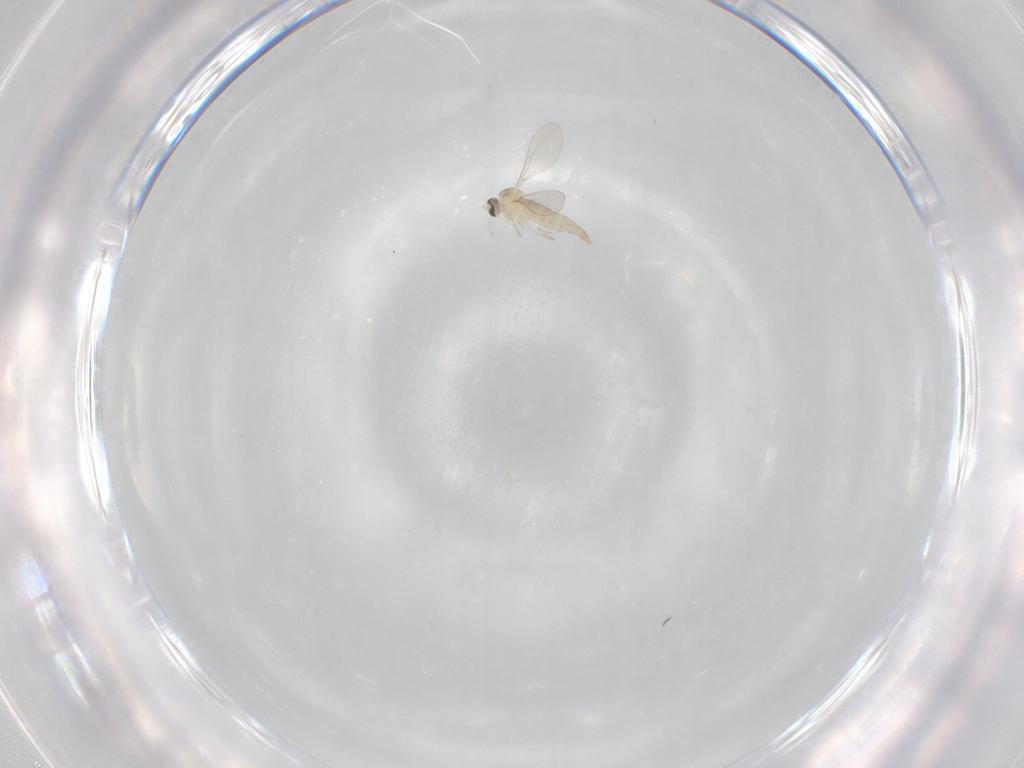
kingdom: Animalia
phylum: Arthropoda
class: Insecta
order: Diptera
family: Cecidomyiidae
